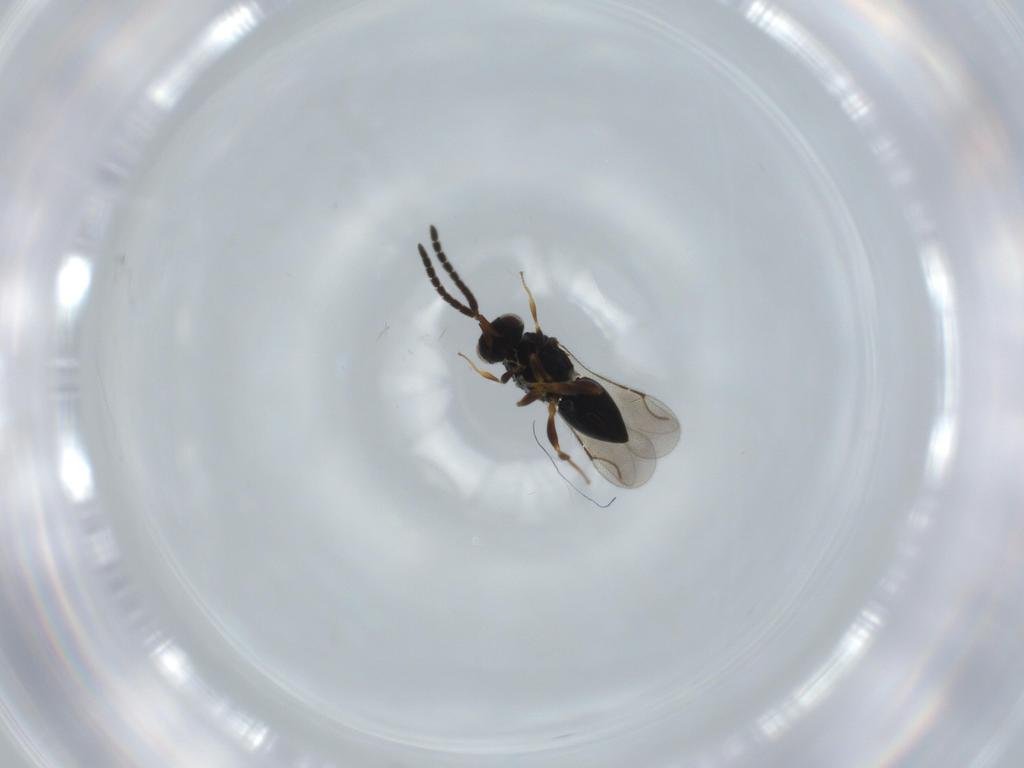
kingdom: Animalia
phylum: Arthropoda
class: Insecta
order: Hymenoptera
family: Ceraphronidae
